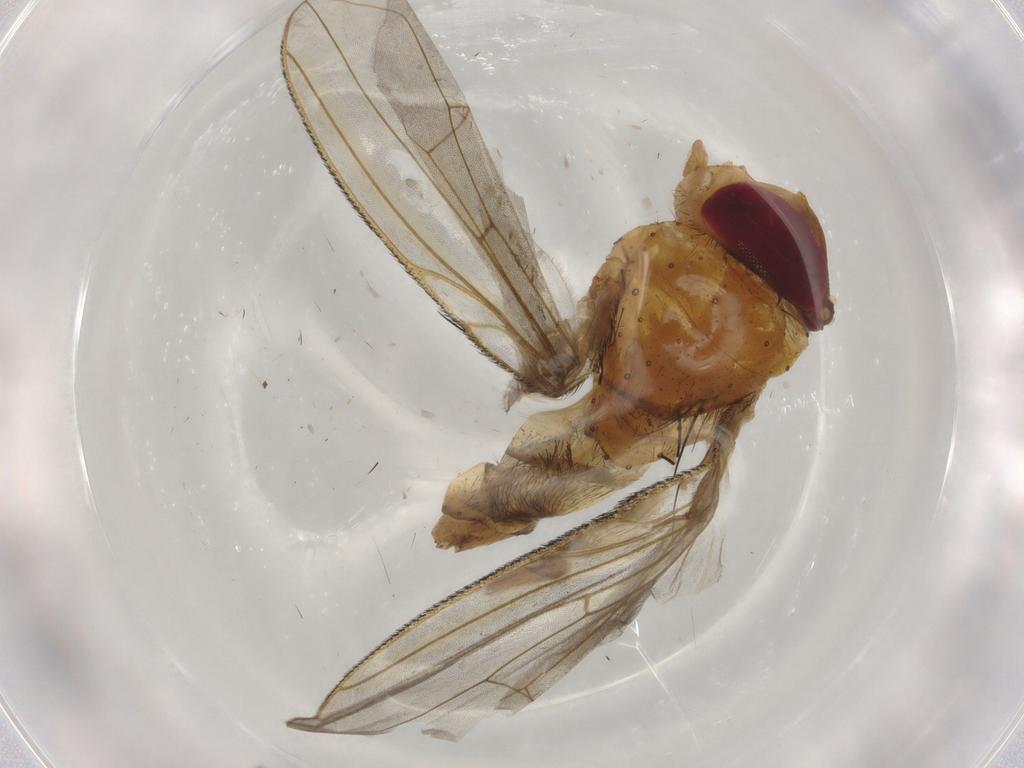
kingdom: Animalia
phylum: Arthropoda
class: Insecta
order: Diptera
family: Calliphoridae
